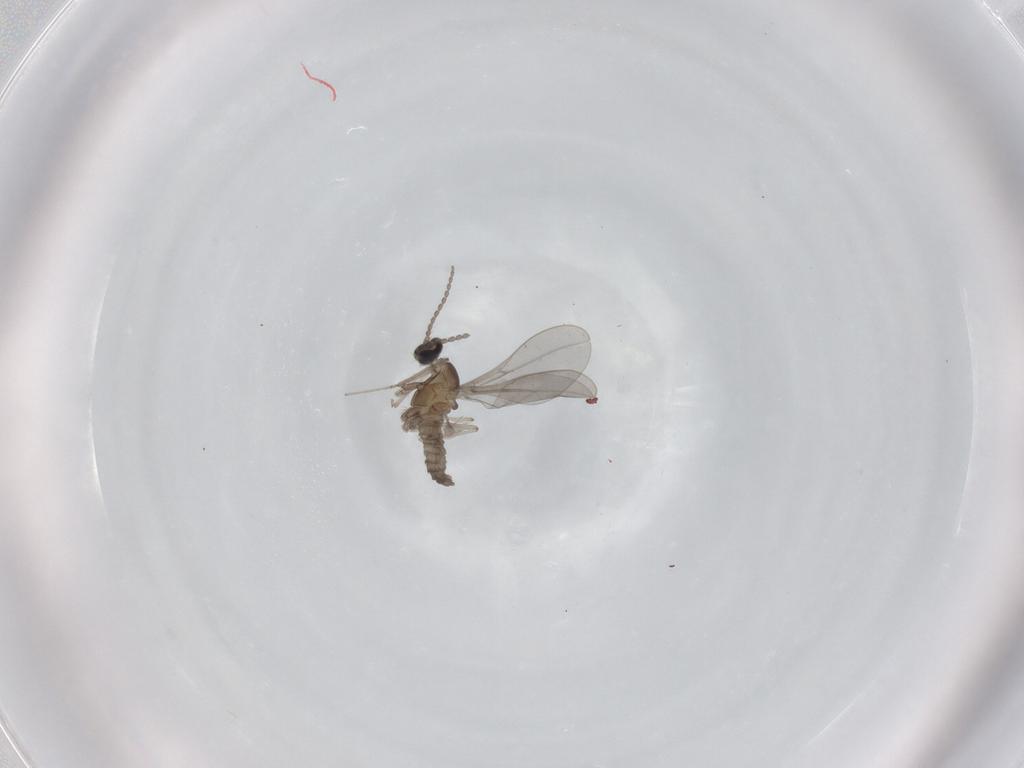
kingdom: Animalia
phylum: Arthropoda
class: Insecta
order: Diptera
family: Cecidomyiidae
